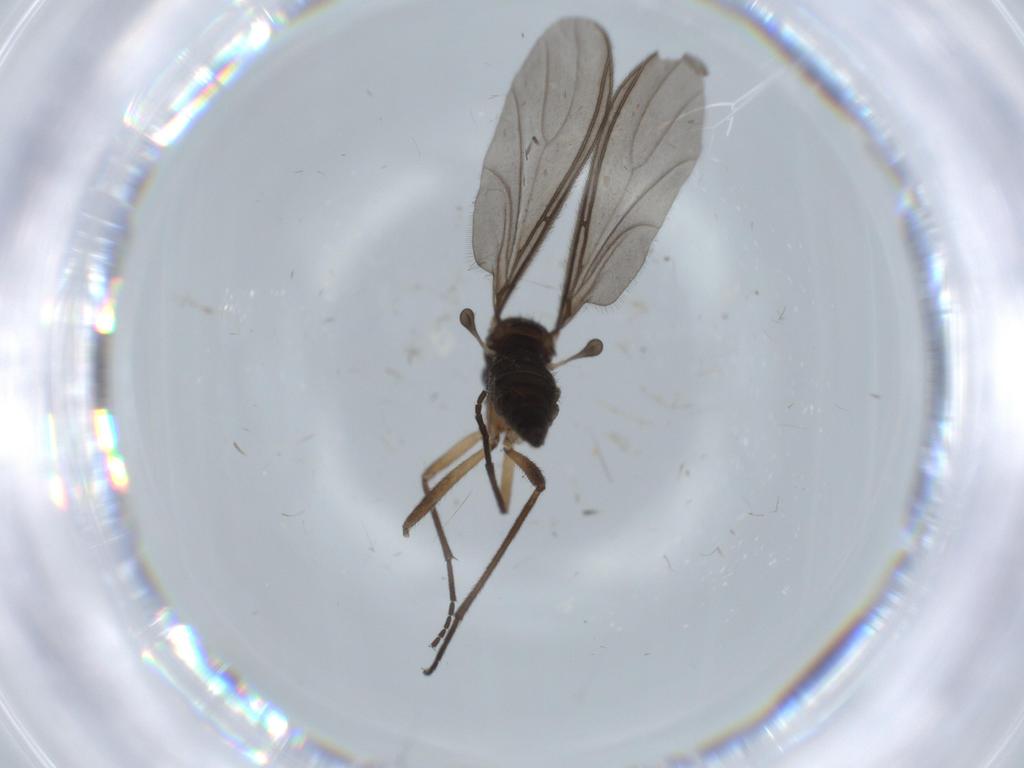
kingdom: Animalia
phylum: Arthropoda
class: Insecta
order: Diptera
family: Sciaridae
